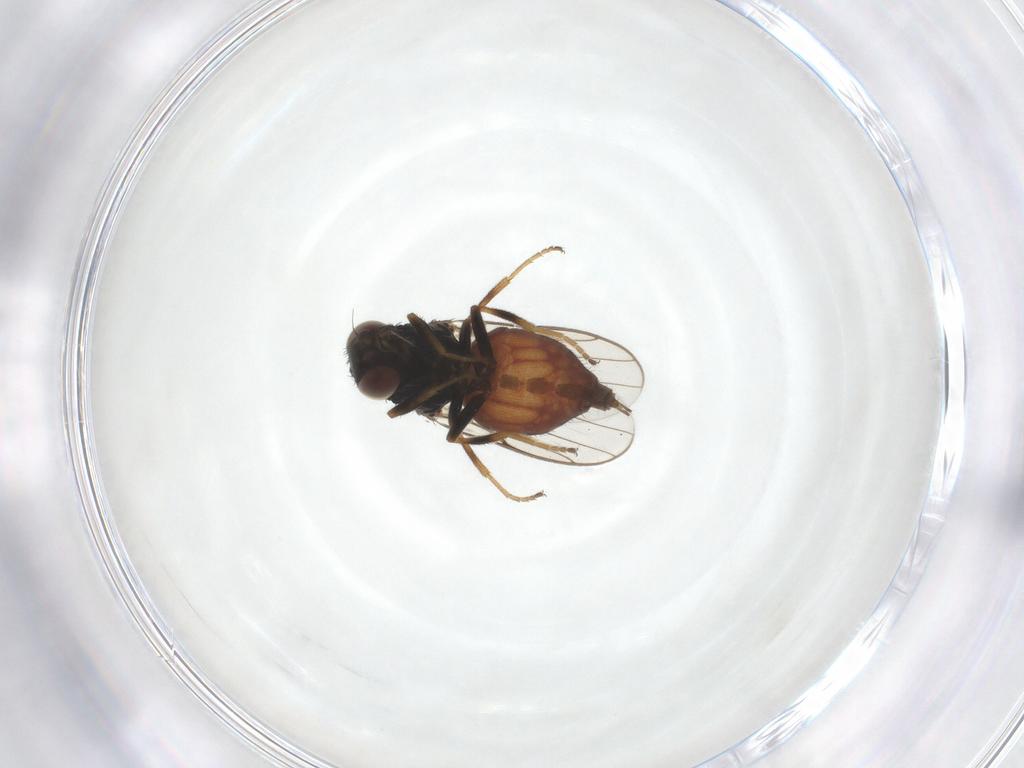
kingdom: Animalia
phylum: Arthropoda
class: Insecta
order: Diptera
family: Chloropidae
